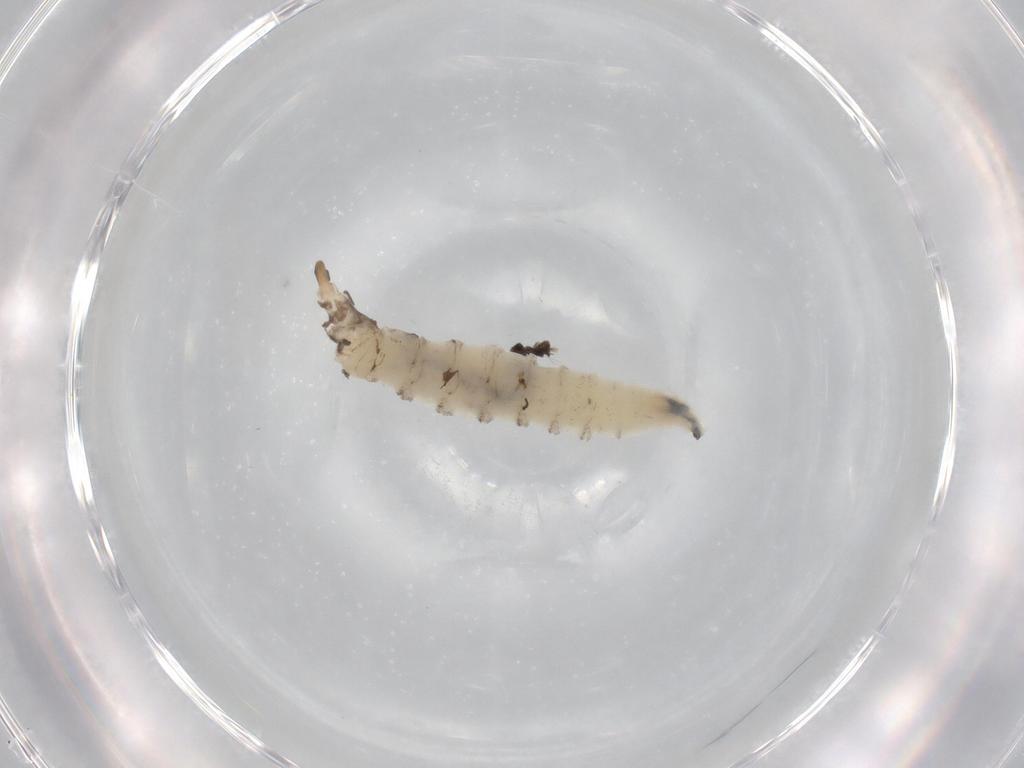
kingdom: Animalia
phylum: Arthropoda
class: Insecta
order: Diptera
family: Drosophilidae
